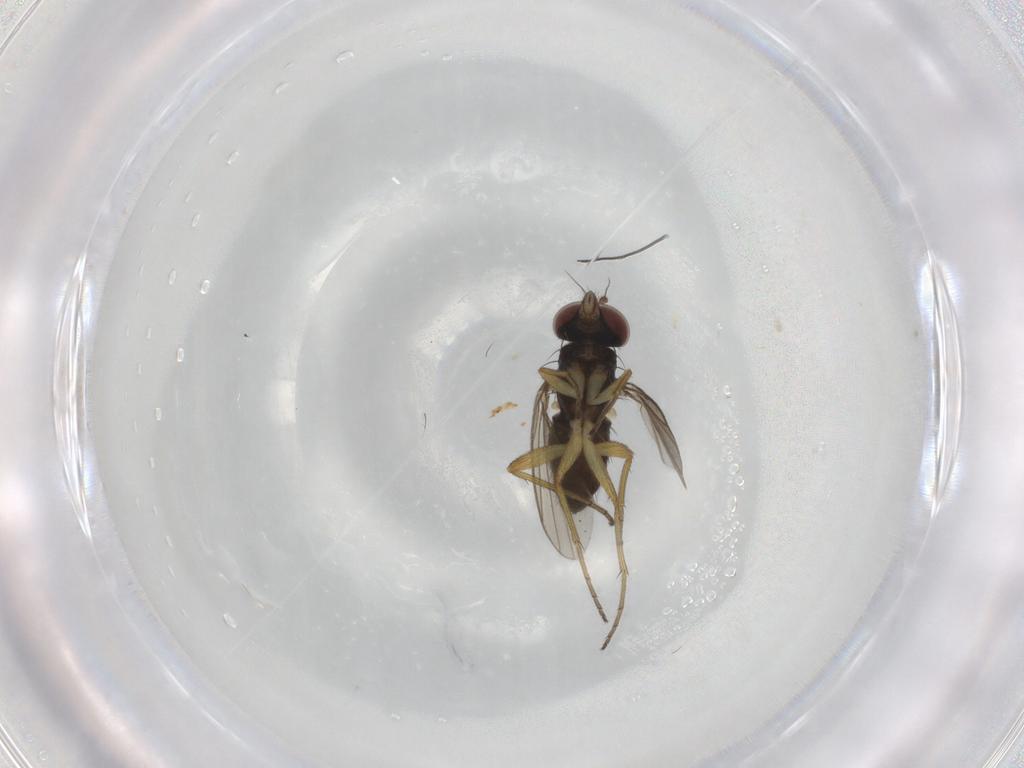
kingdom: Animalia
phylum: Arthropoda
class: Insecta
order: Diptera
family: Dolichopodidae
